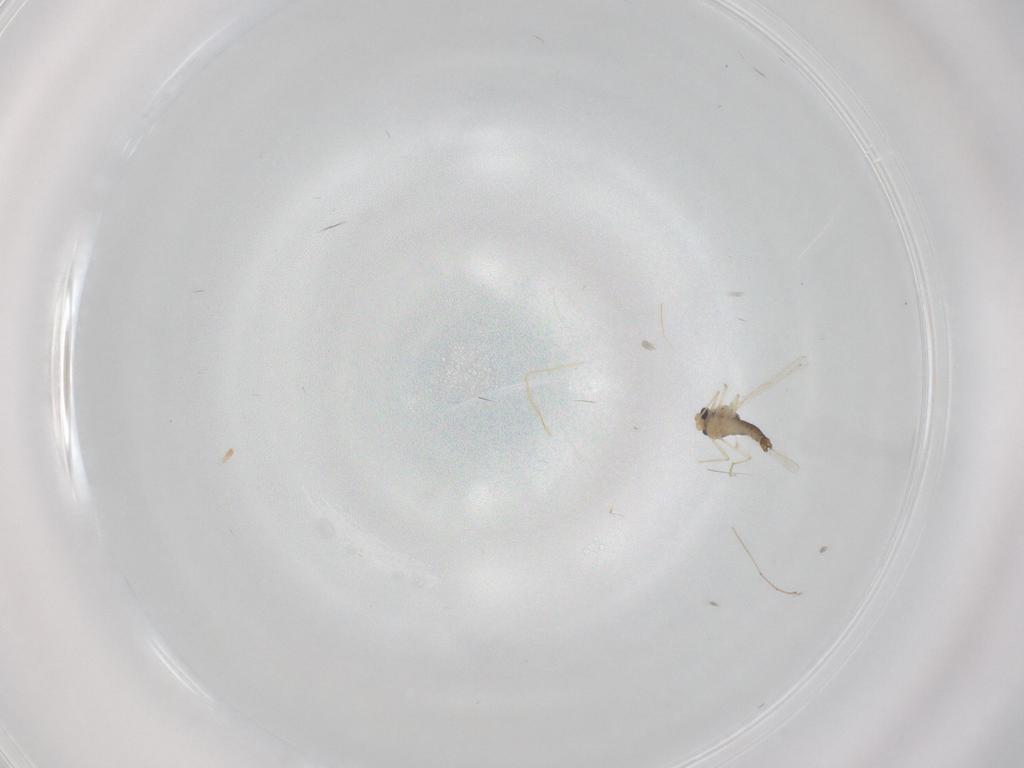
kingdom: Animalia
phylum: Arthropoda
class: Insecta
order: Diptera
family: Chironomidae
